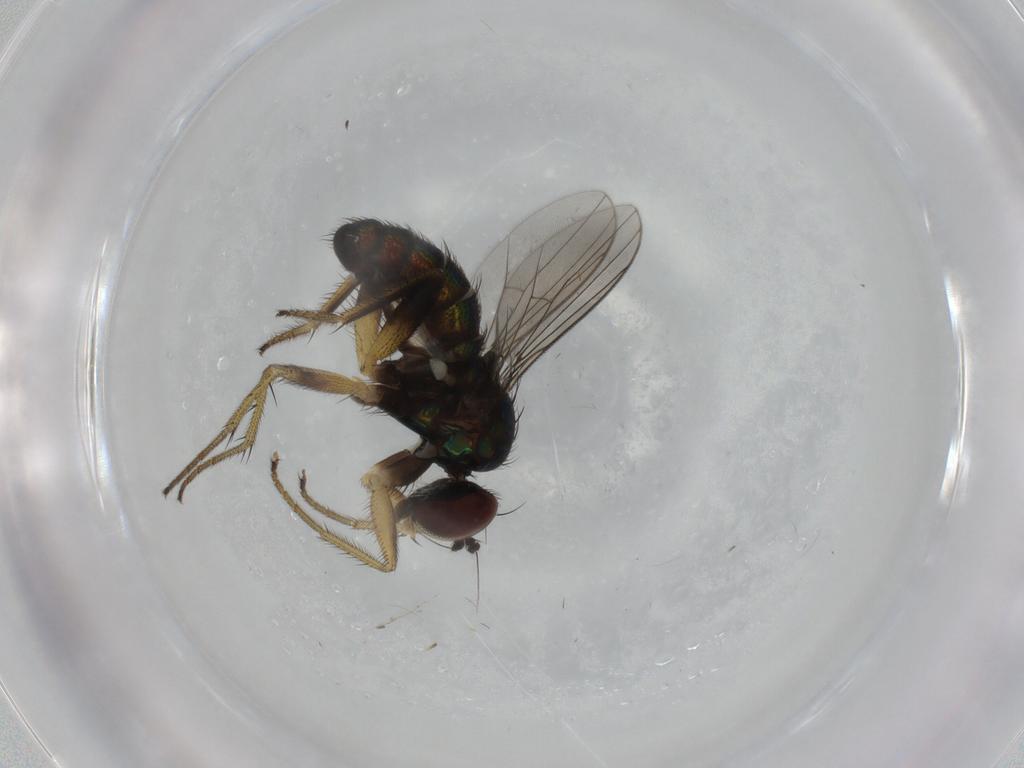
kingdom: Animalia
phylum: Arthropoda
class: Insecta
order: Diptera
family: Dolichopodidae
